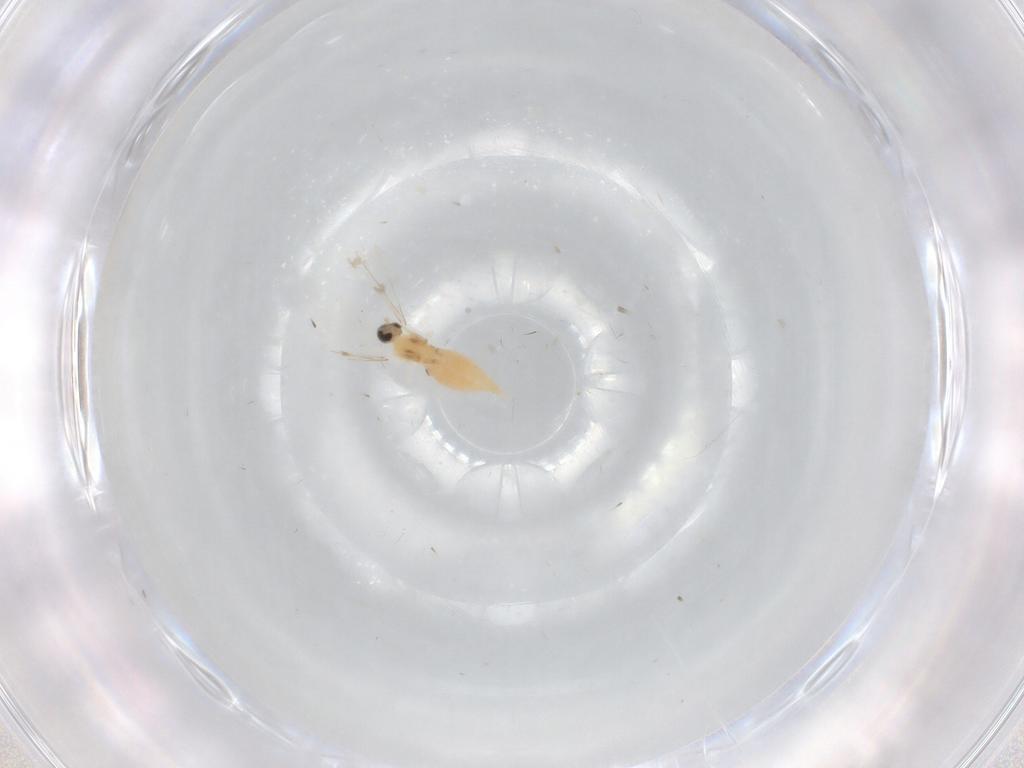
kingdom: Animalia
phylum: Arthropoda
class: Insecta
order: Diptera
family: Cecidomyiidae
